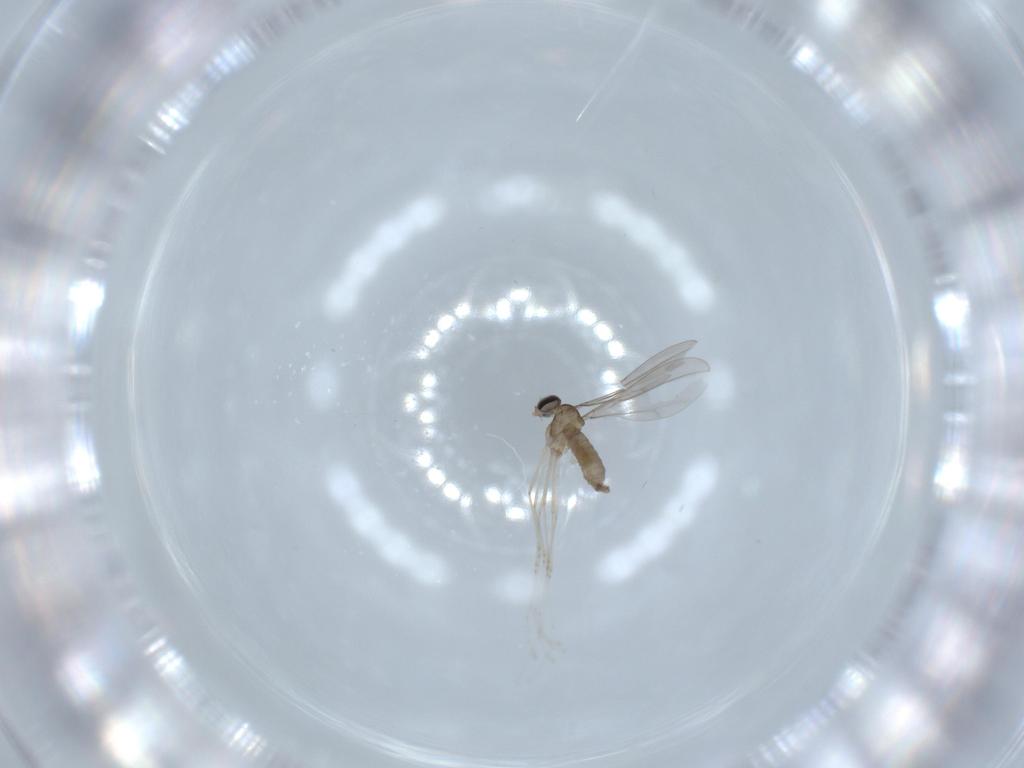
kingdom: Animalia
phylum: Arthropoda
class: Insecta
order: Diptera
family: Cecidomyiidae
